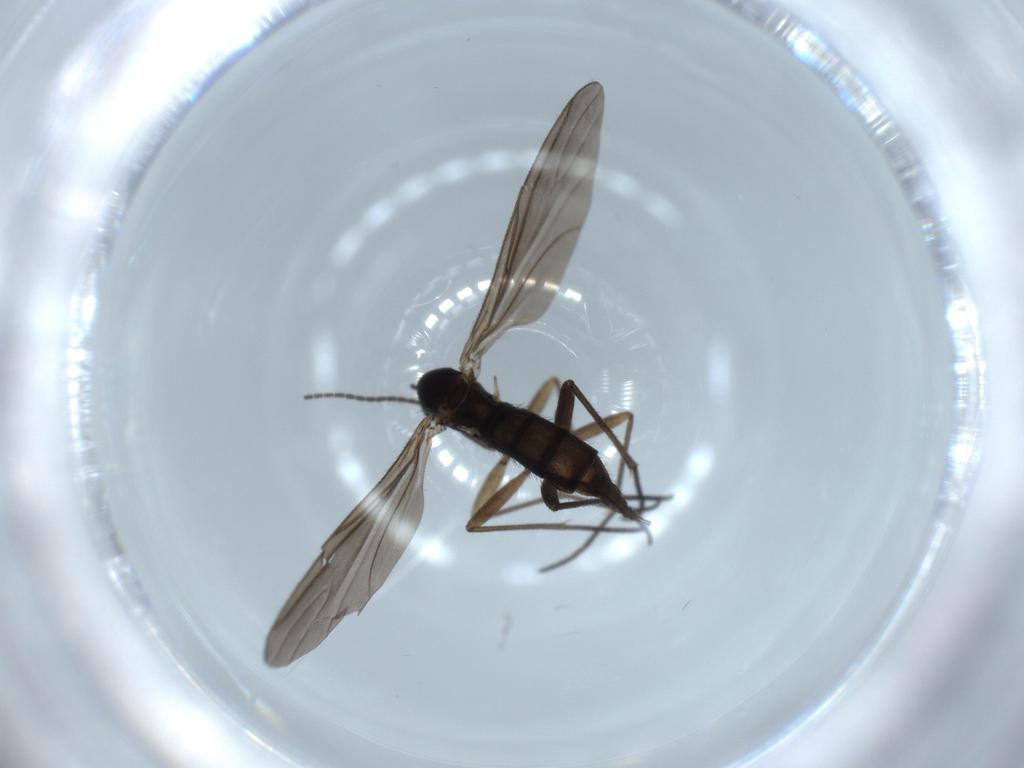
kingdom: Animalia
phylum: Arthropoda
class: Insecta
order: Diptera
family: Sciaridae
